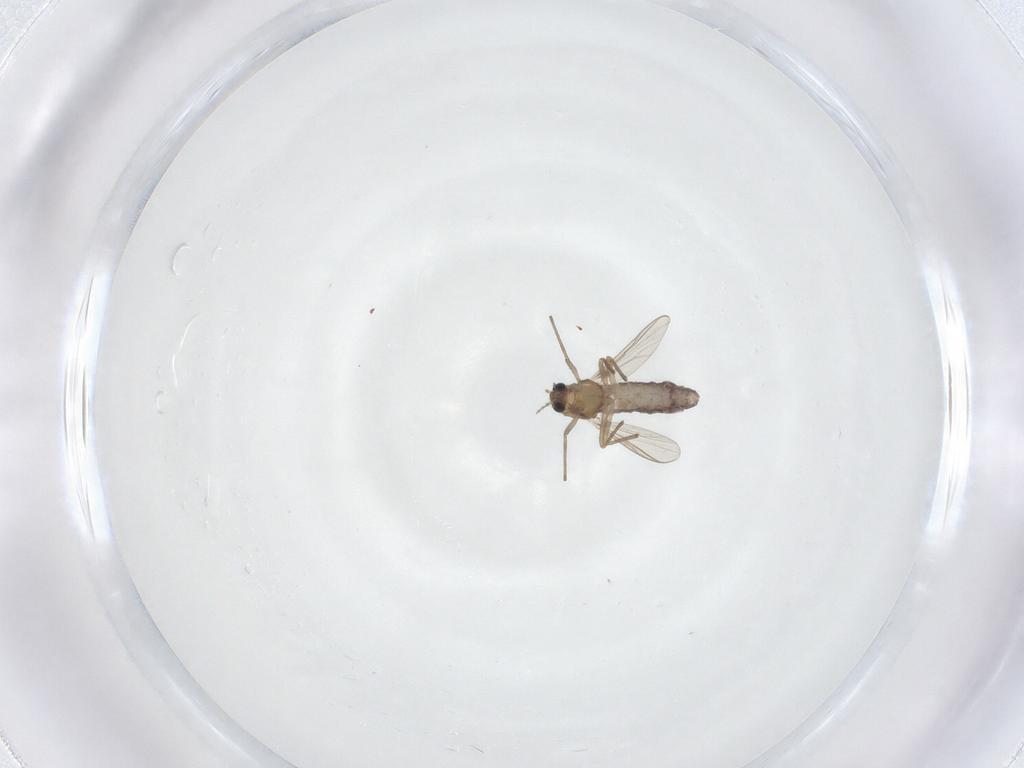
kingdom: Animalia
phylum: Arthropoda
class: Insecta
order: Diptera
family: Chironomidae
